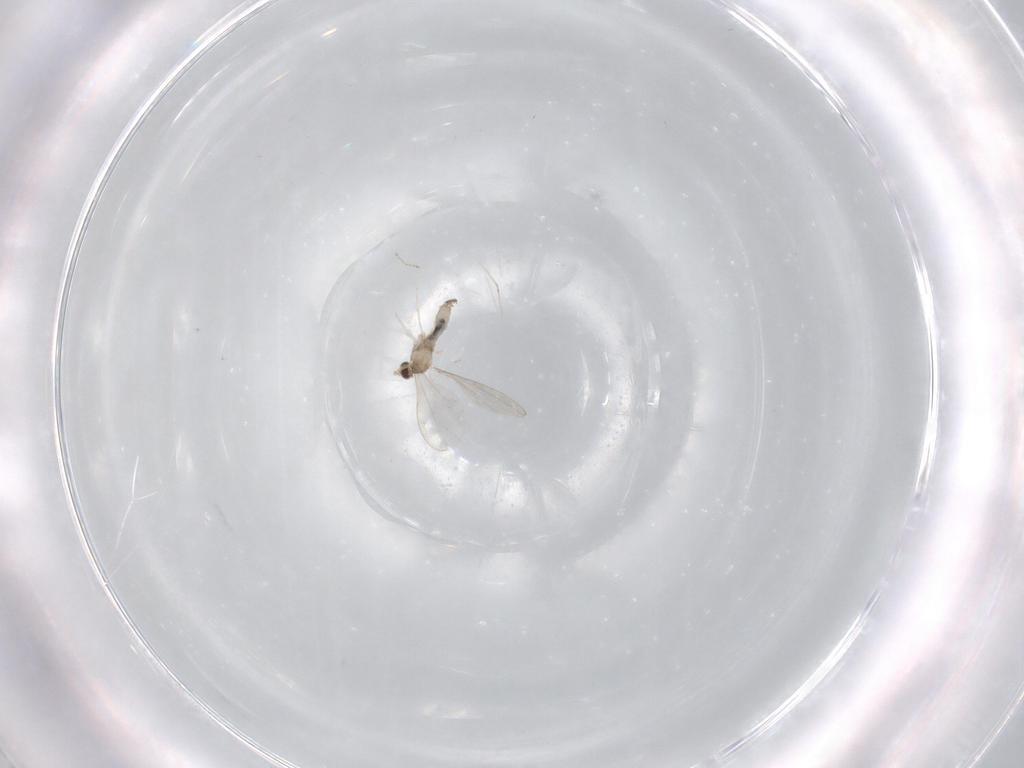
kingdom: Animalia
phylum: Arthropoda
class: Insecta
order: Diptera
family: Cecidomyiidae
